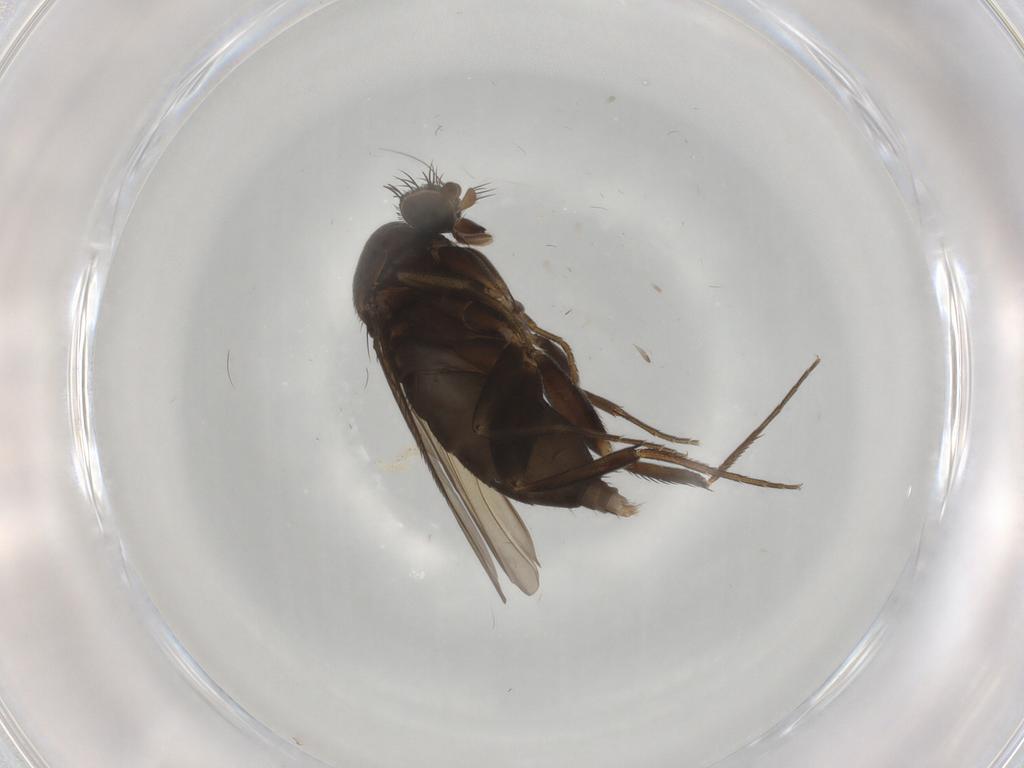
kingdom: Animalia
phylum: Arthropoda
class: Insecta
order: Diptera
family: Phoridae
